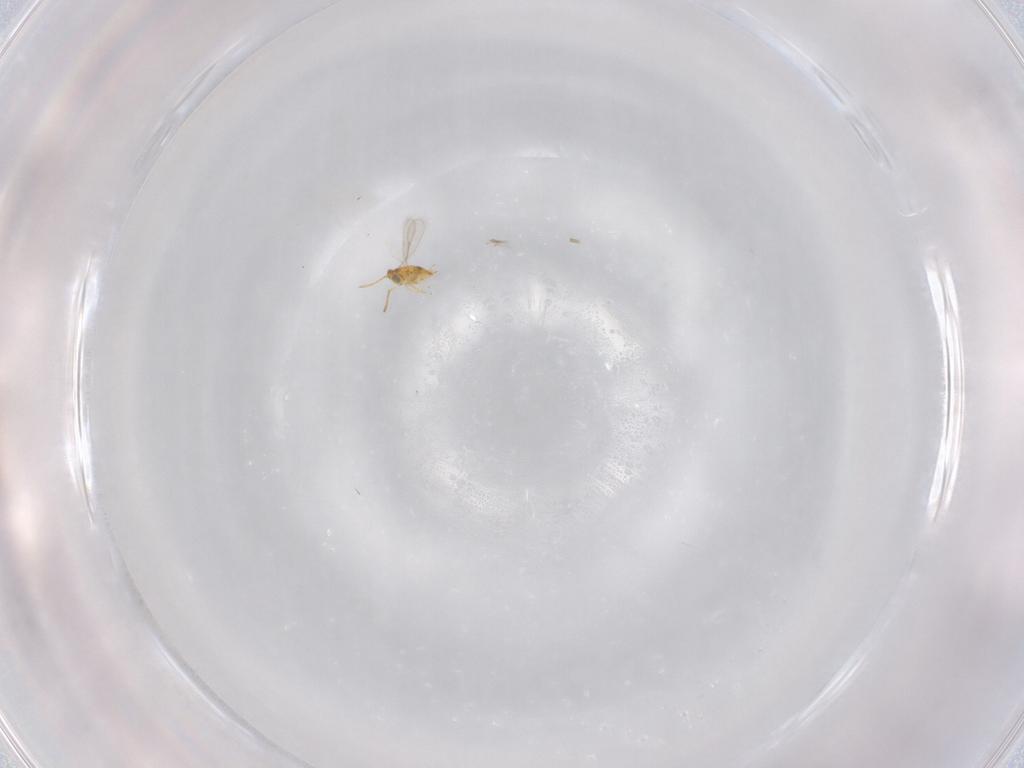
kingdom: Animalia
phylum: Arthropoda
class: Insecta
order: Hymenoptera
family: Aphelinidae
